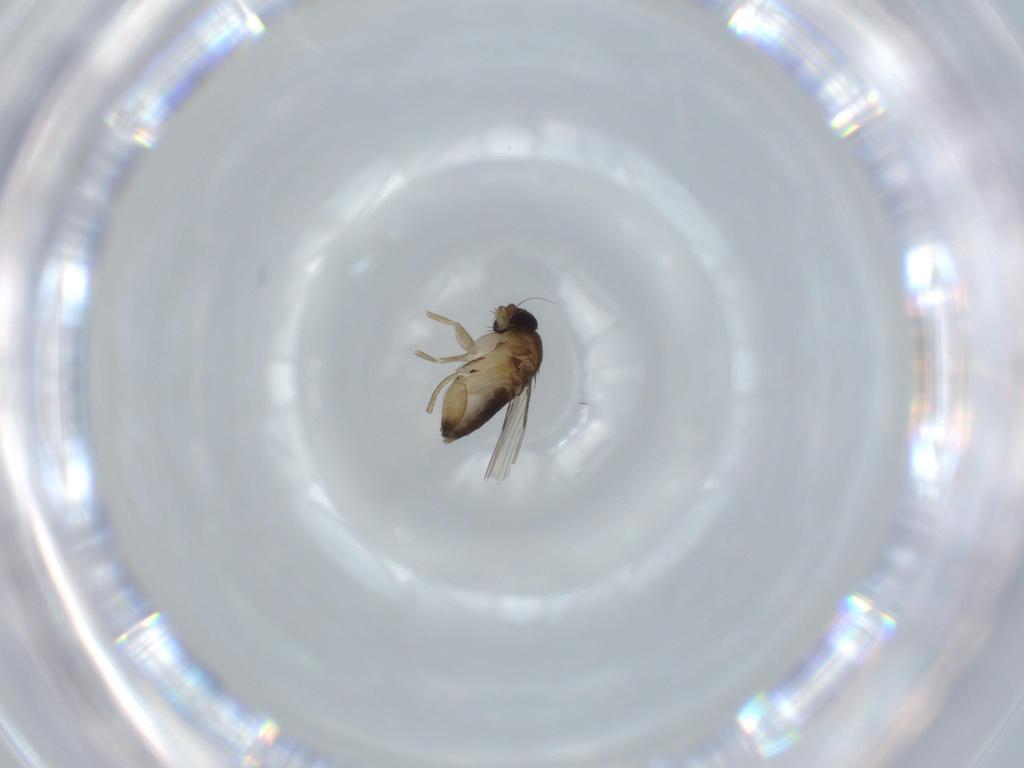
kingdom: Animalia
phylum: Arthropoda
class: Insecta
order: Diptera
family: Phoridae
